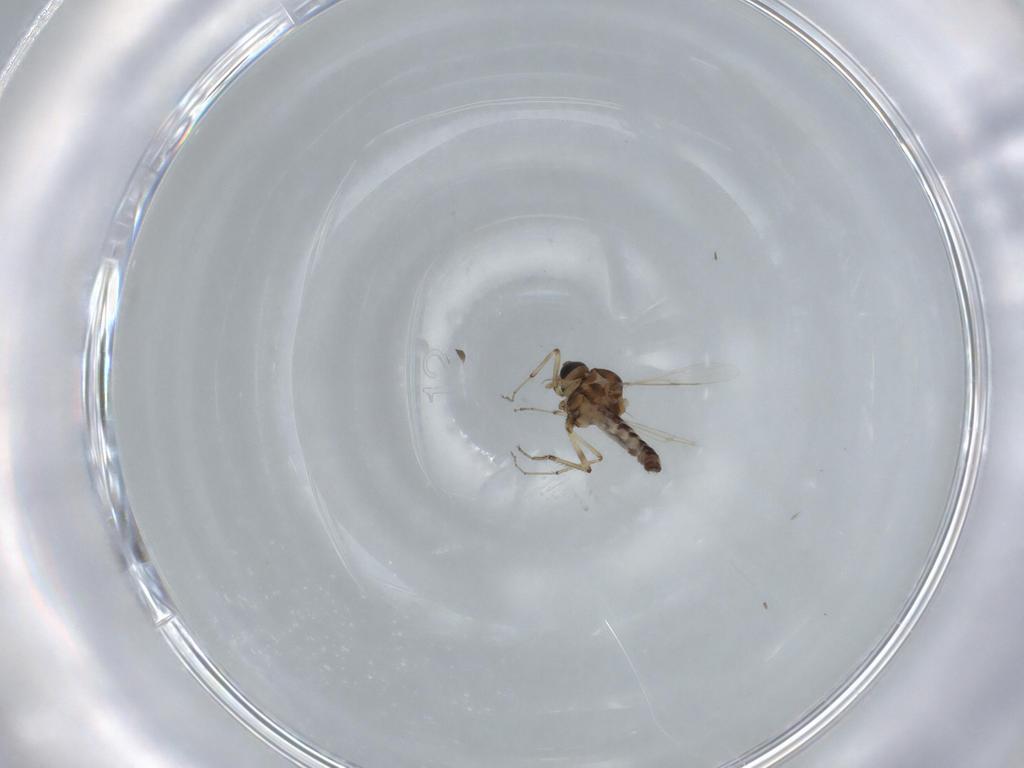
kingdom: Animalia
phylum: Arthropoda
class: Insecta
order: Diptera
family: Ceratopogonidae
